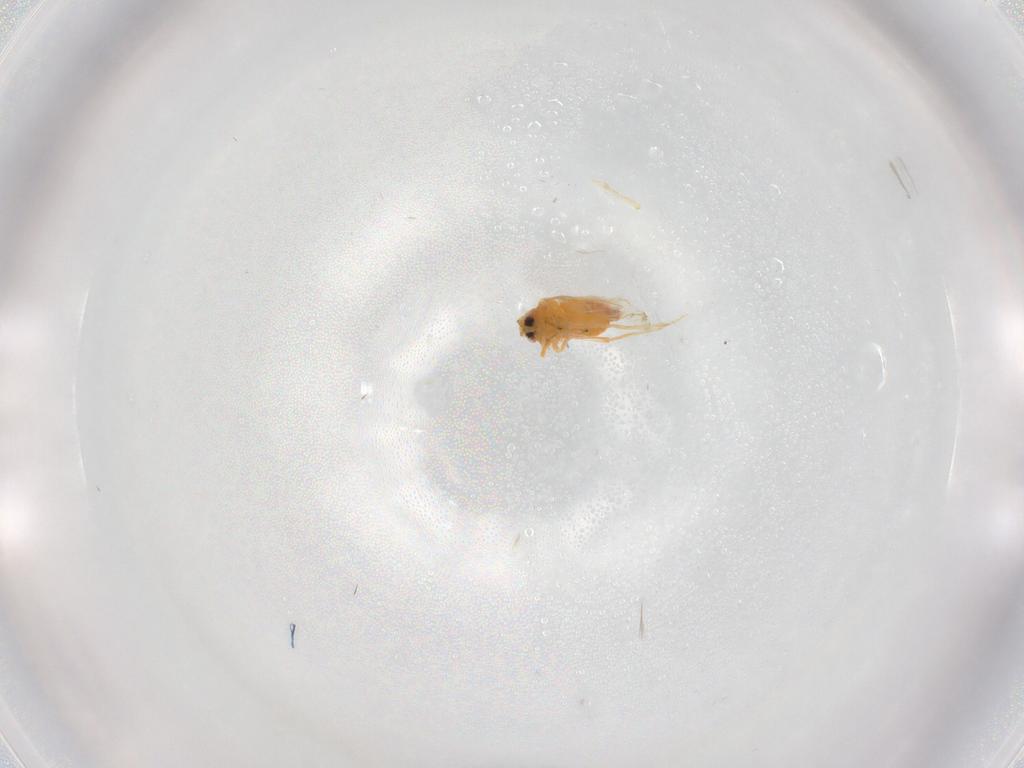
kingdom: Animalia
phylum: Arthropoda
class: Insecta
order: Hemiptera
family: Aleyrodidae
